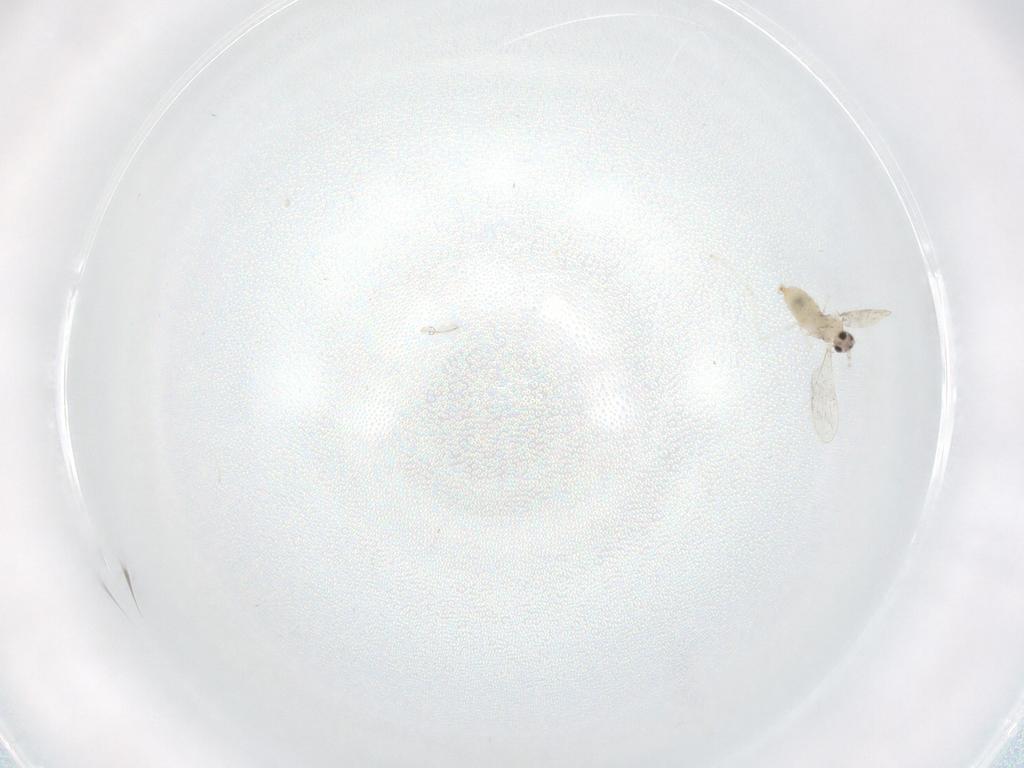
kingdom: Animalia
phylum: Arthropoda
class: Insecta
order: Diptera
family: Cecidomyiidae
